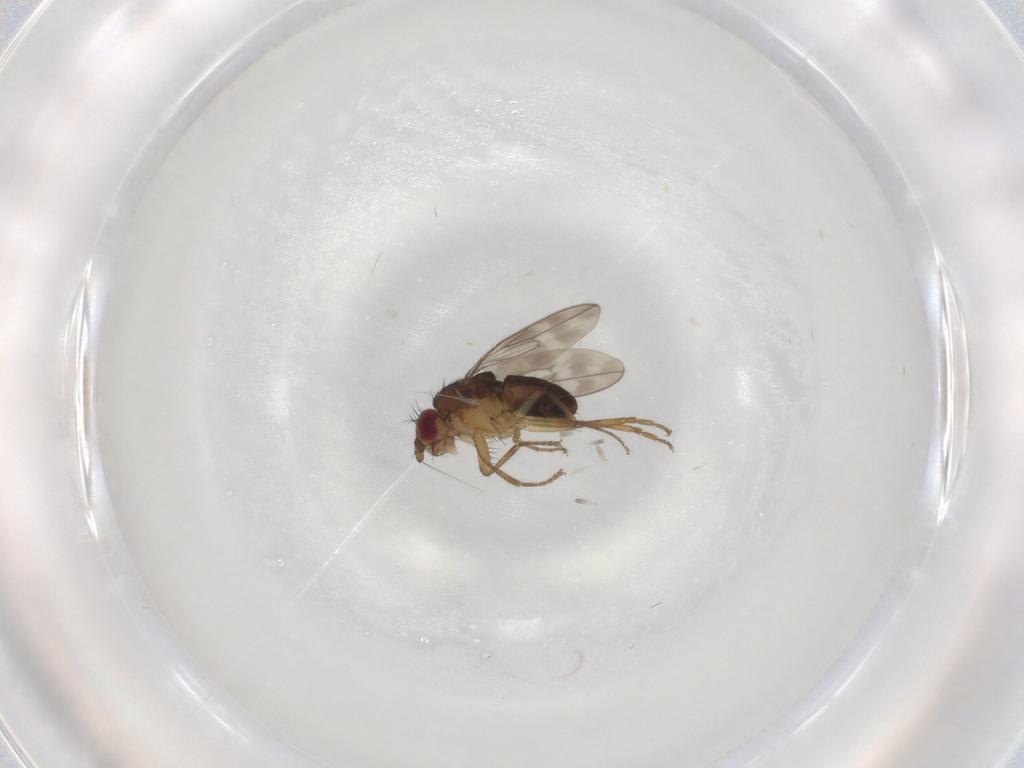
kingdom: Animalia
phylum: Arthropoda
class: Insecta
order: Diptera
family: Sphaeroceridae
